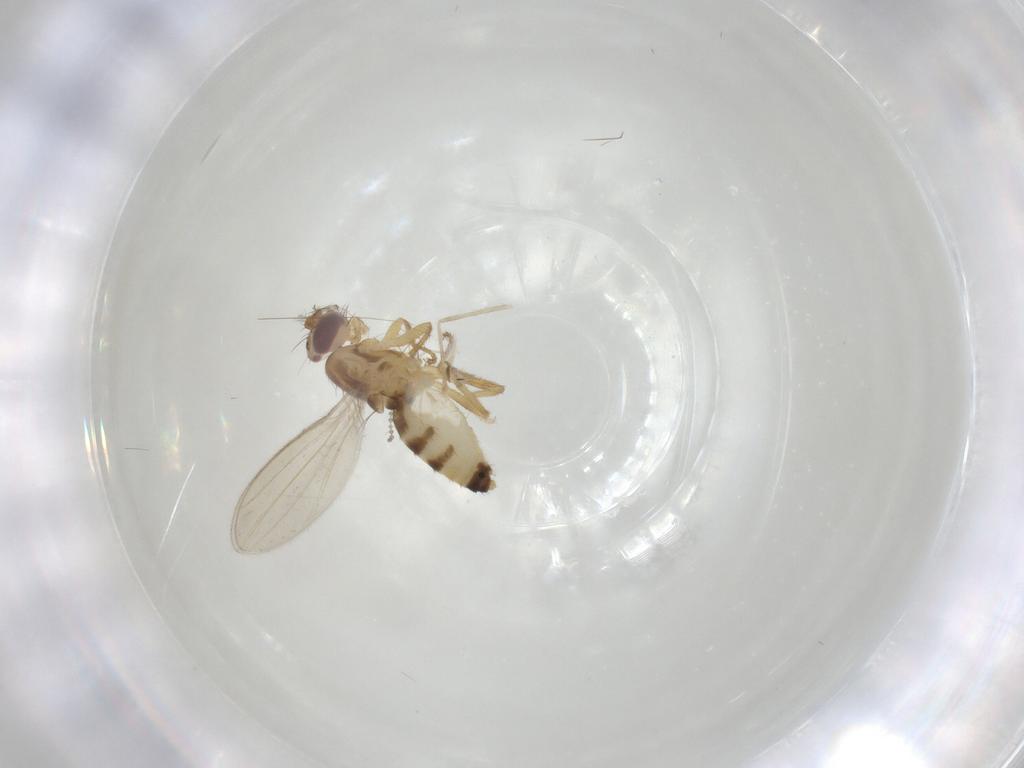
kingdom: Animalia
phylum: Arthropoda
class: Insecta
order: Diptera
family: Periscelididae
